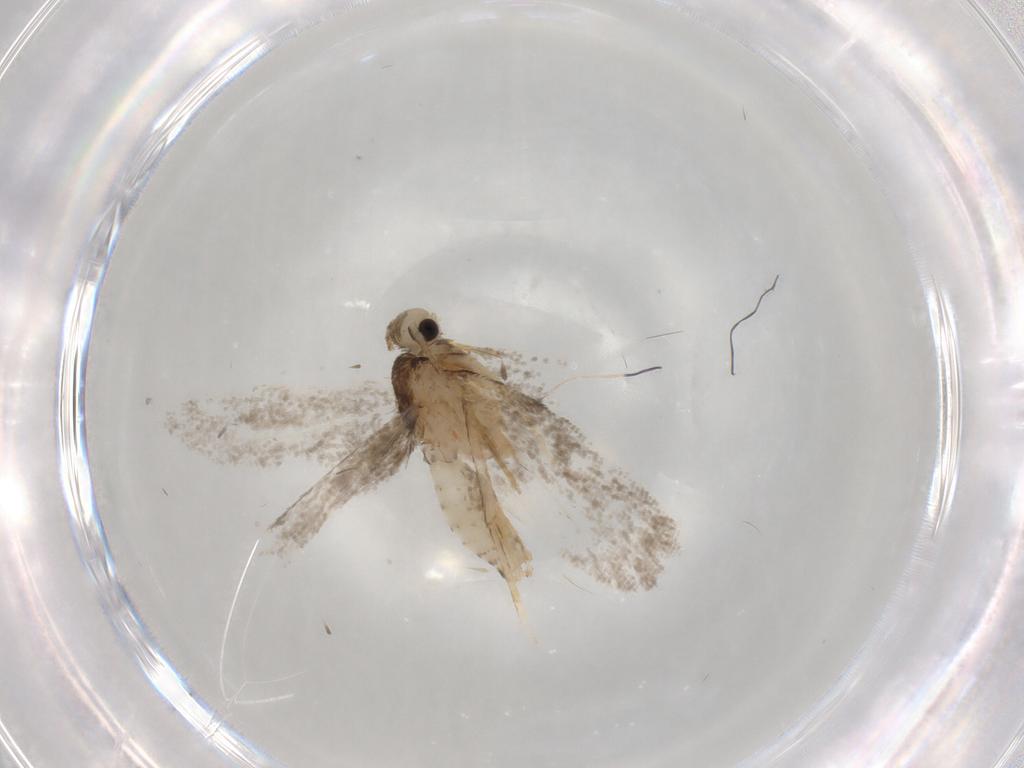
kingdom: Animalia
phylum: Arthropoda
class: Insecta
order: Lepidoptera
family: Psychidae
